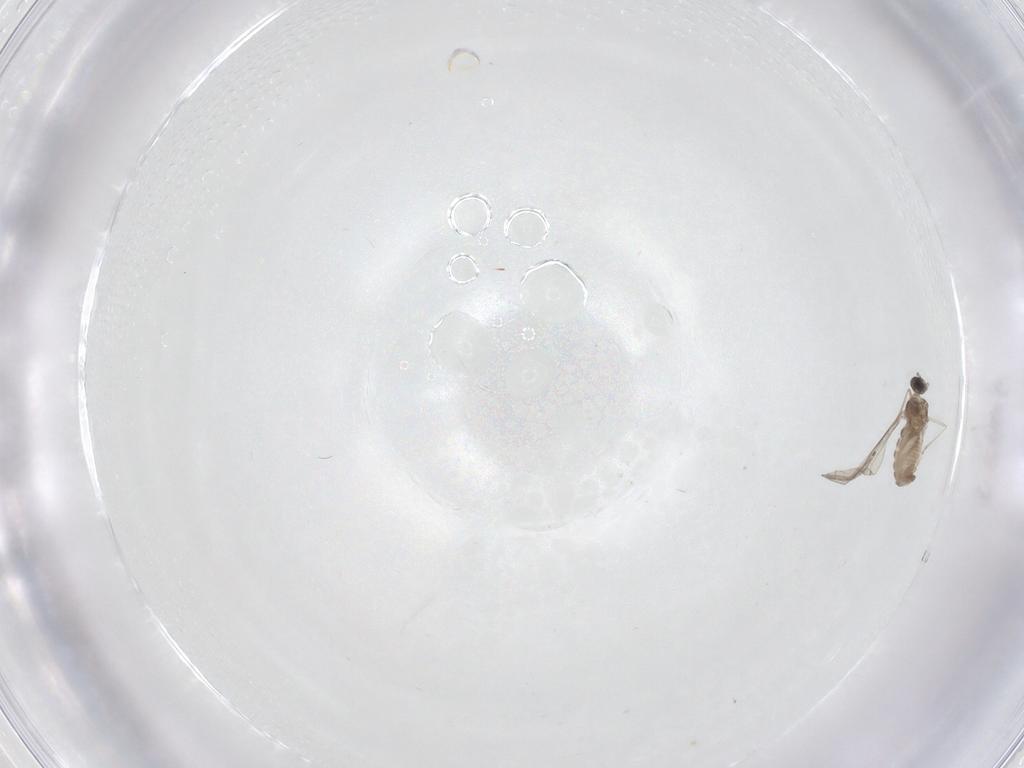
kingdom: Animalia
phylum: Arthropoda
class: Insecta
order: Diptera
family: Cecidomyiidae
